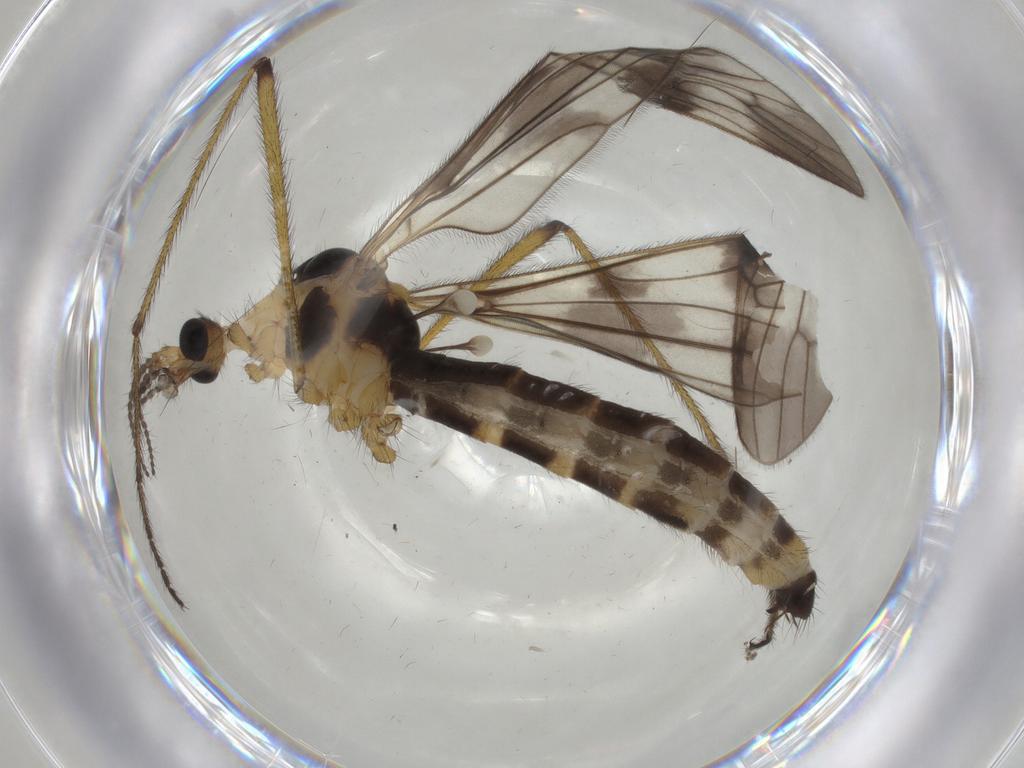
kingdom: Animalia
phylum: Arthropoda
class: Insecta
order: Diptera
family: Limoniidae
